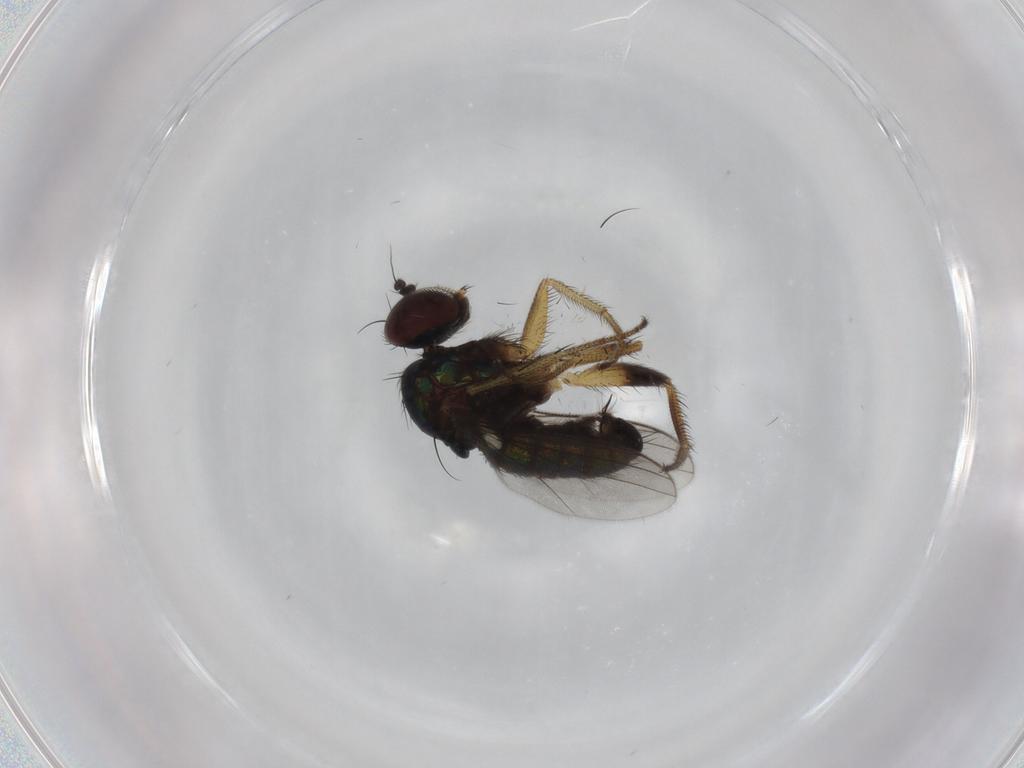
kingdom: Animalia
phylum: Arthropoda
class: Insecta
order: Diptera
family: Dolichopodidae
